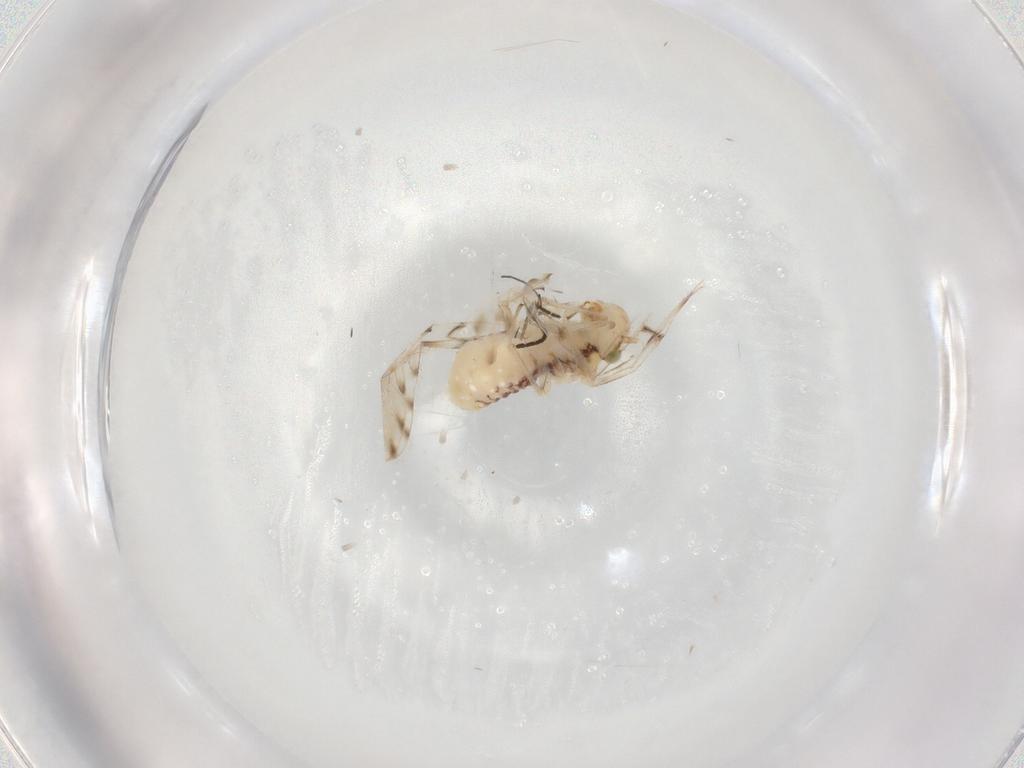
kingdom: Animalia
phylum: Arthropoda
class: Insecta
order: Psocodea
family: Ectopsocidae
